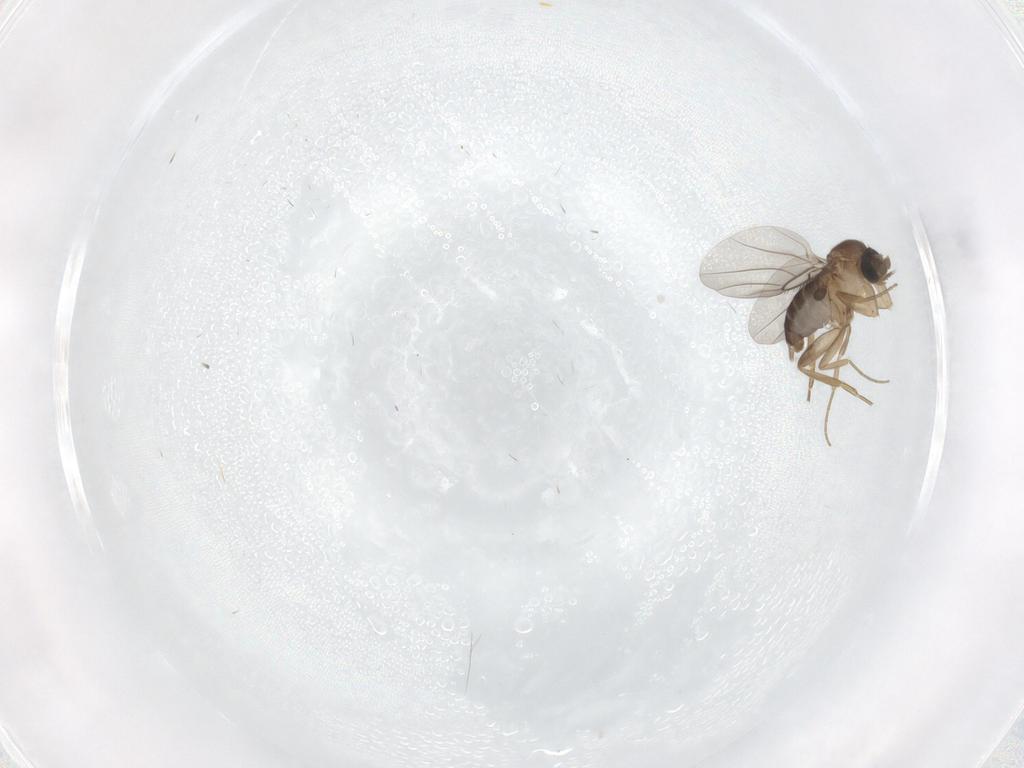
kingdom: Animalia
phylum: Arthropoda
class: Insecta
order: Diptera
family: Phoridae
